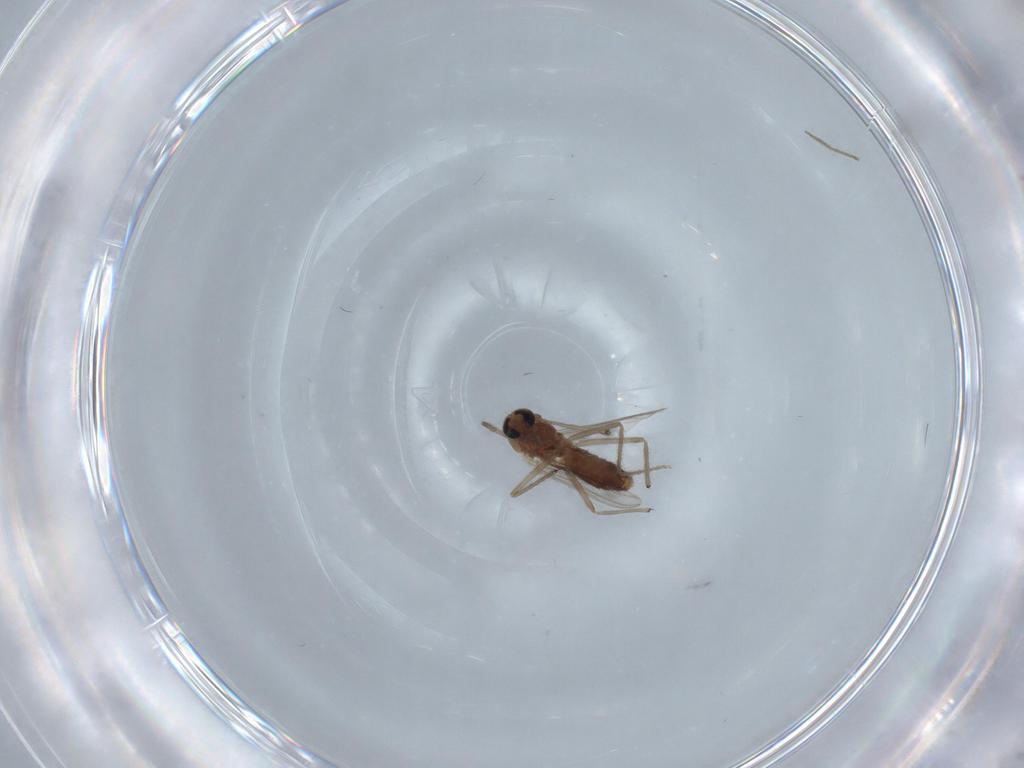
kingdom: Animalia
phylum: Arthropoda
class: Insecta
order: Diptera
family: Chironomidae
